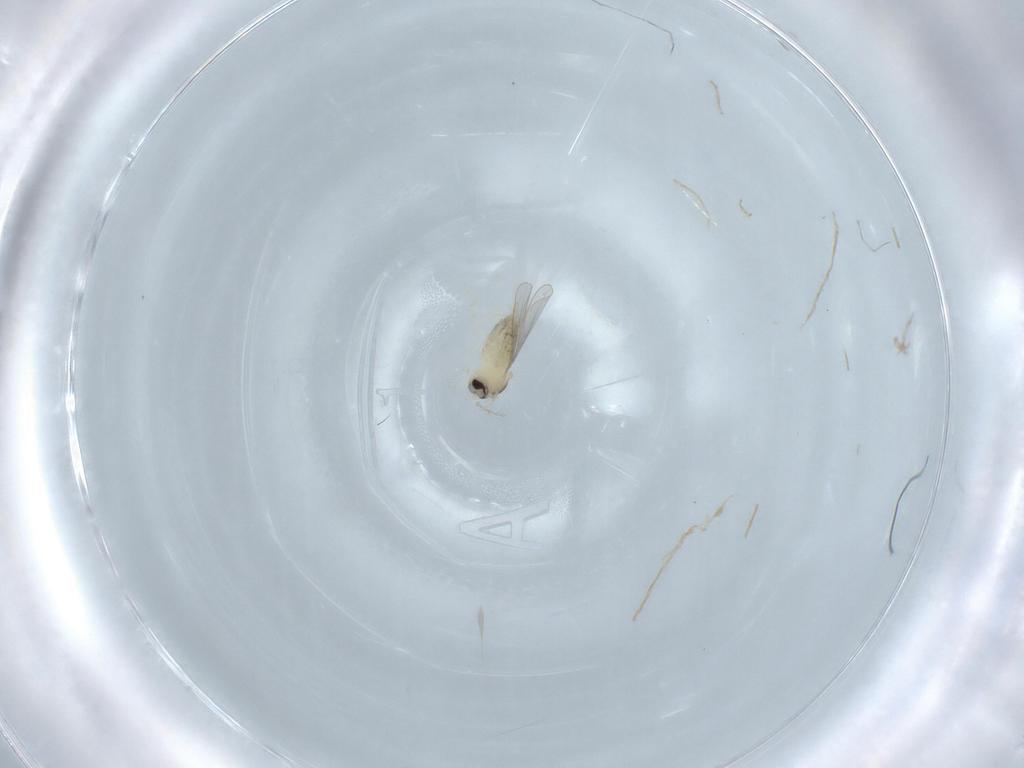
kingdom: Animalia
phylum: Arthropoda
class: Insecta
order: Diptera
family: Cecidomyiidae
